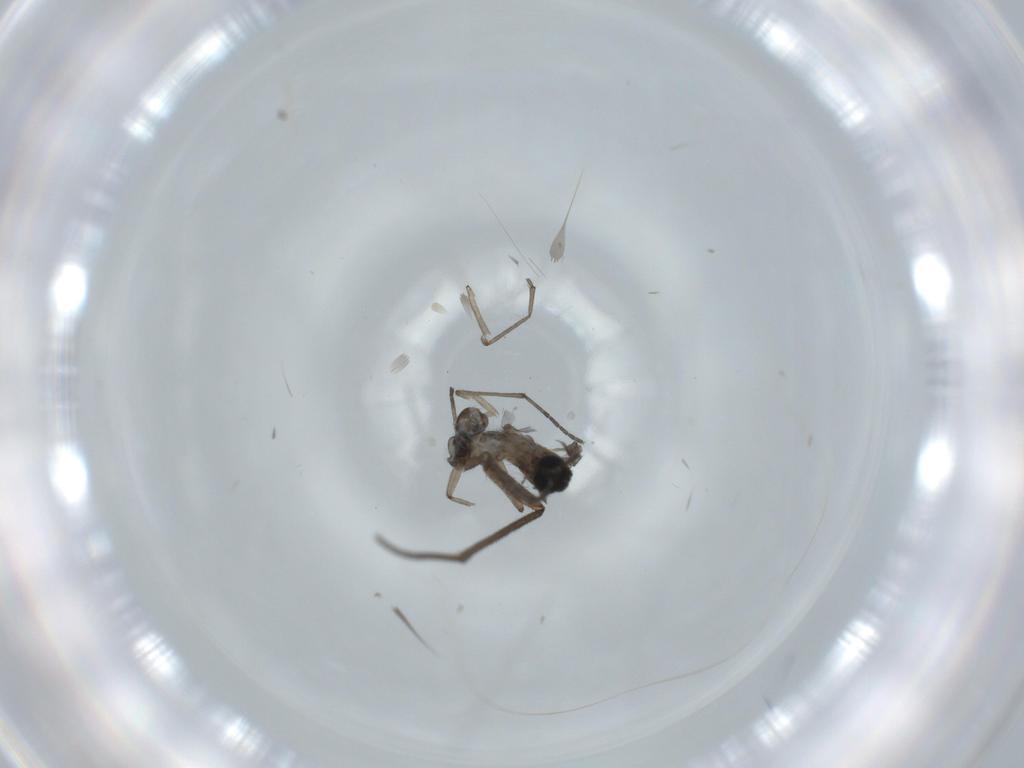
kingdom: Animalia
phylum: Arthropoda
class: Insecta
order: Diptera
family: Sciaridae
